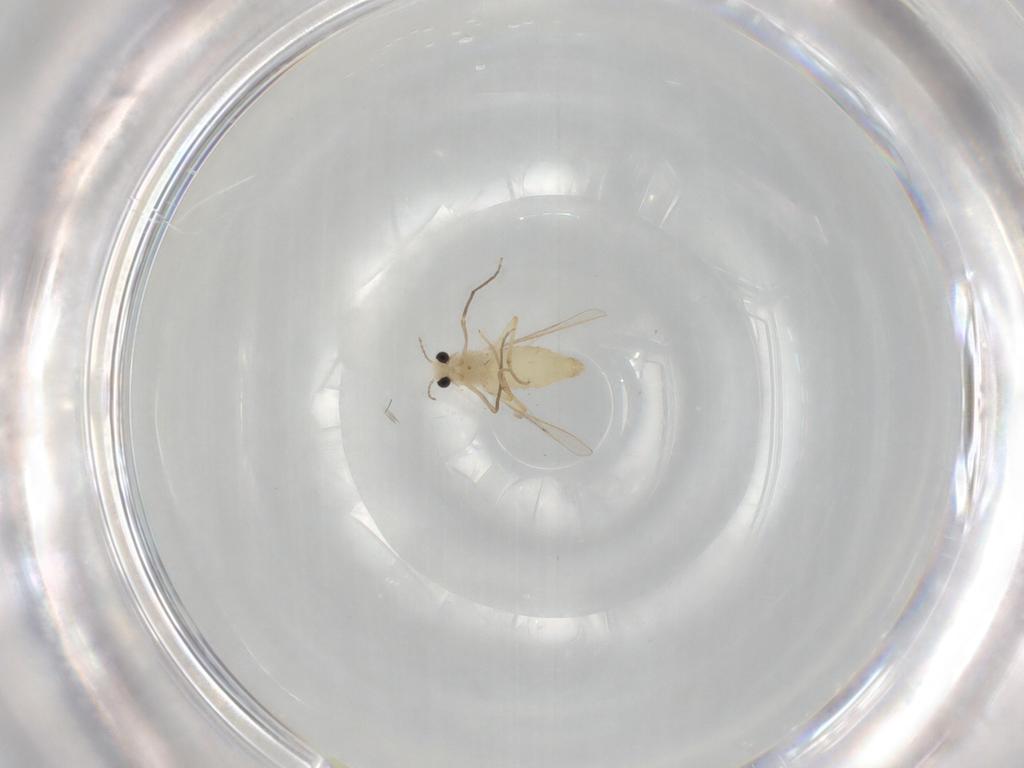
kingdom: Animalia
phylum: Arthropoda
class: Insecta
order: Diptera
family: Chironomidae
